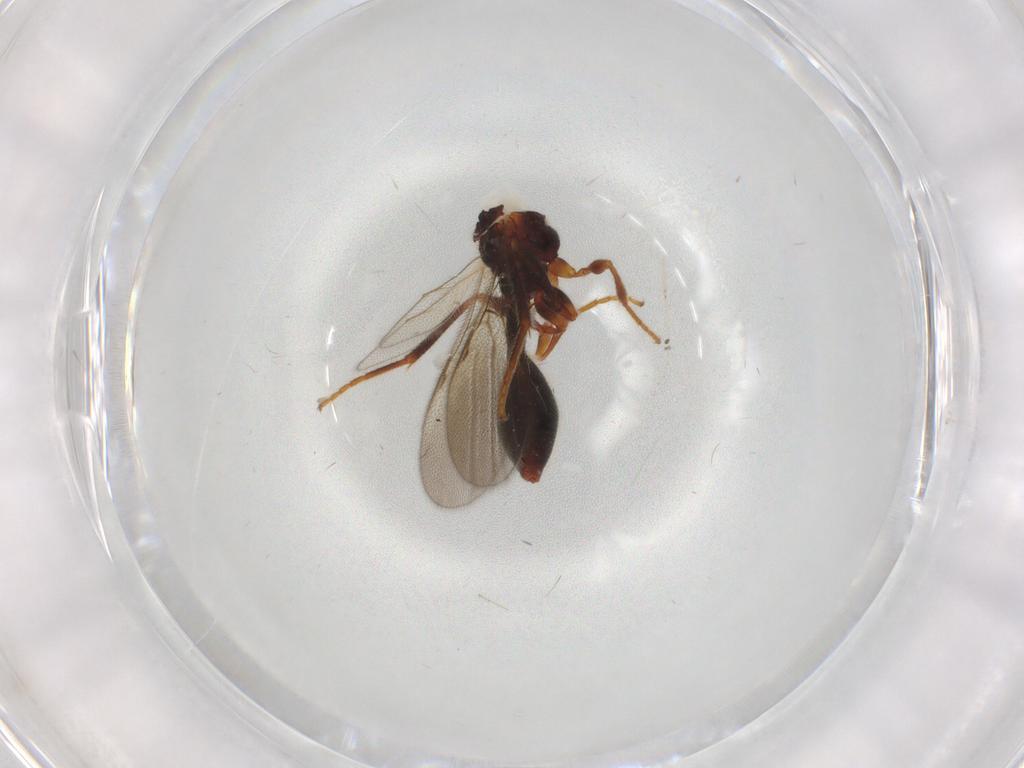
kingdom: Animalia
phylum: Arthropoda
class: Insecta
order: Hymenoptera
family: Diapriidae
